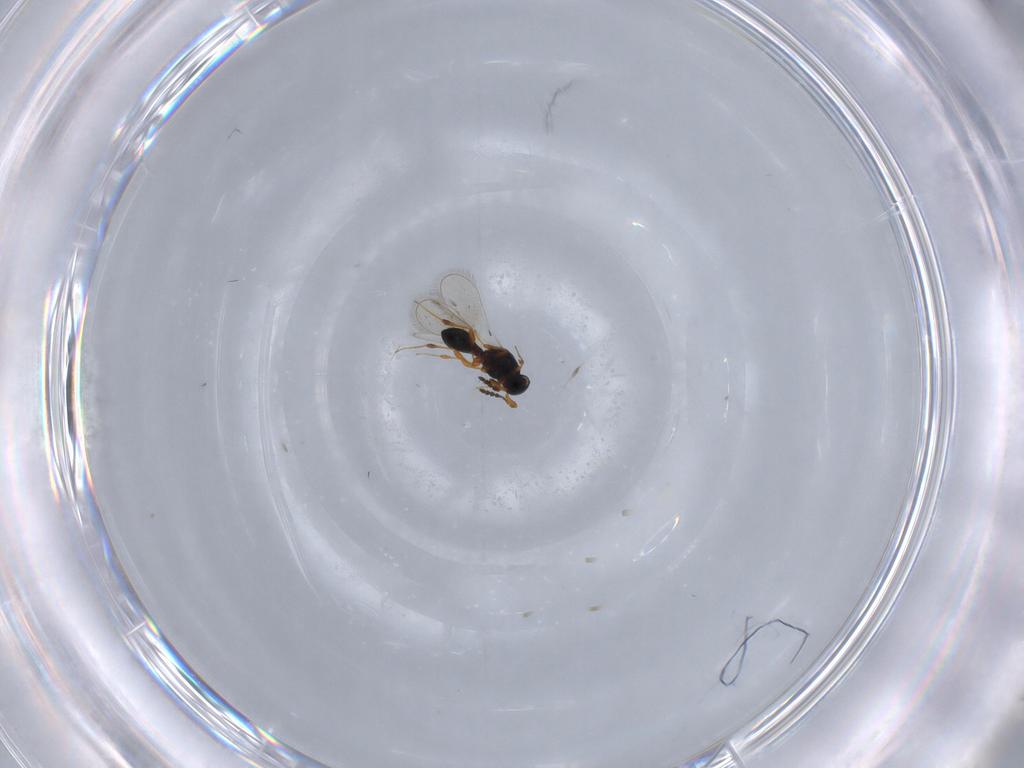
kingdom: Animalia
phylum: Arthropoda
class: Insecta
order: Hymenoptera
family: Platygastridae
